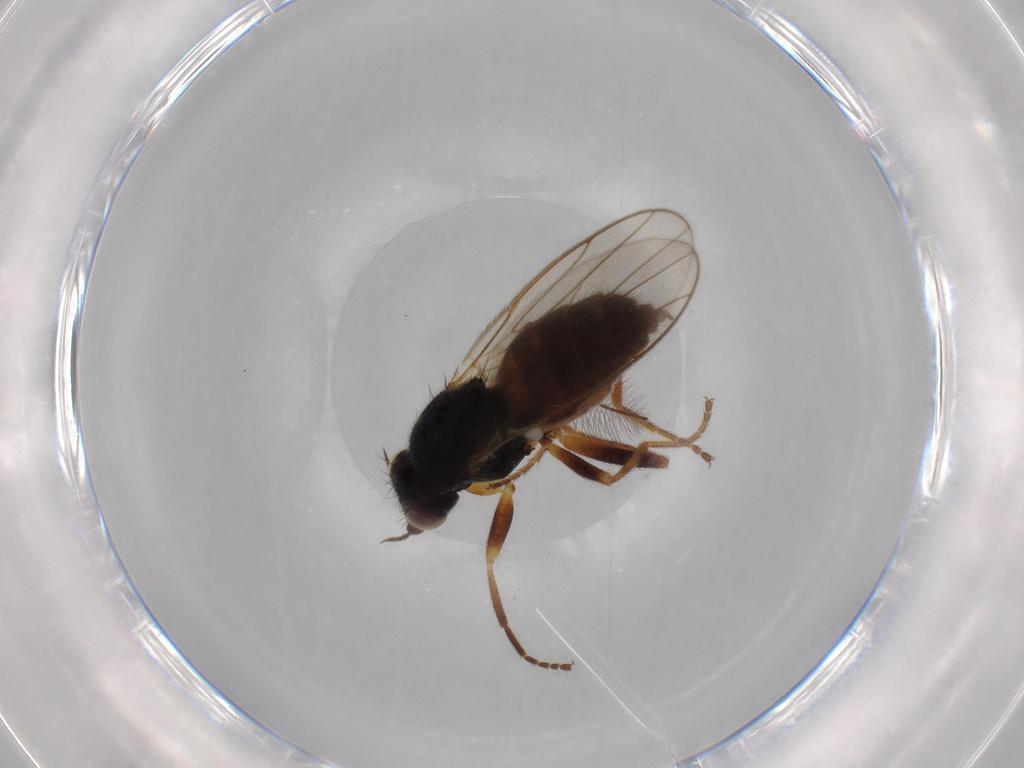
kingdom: Animalia
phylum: Arthropoda
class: Insecta
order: Diptera
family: Chloropidae
